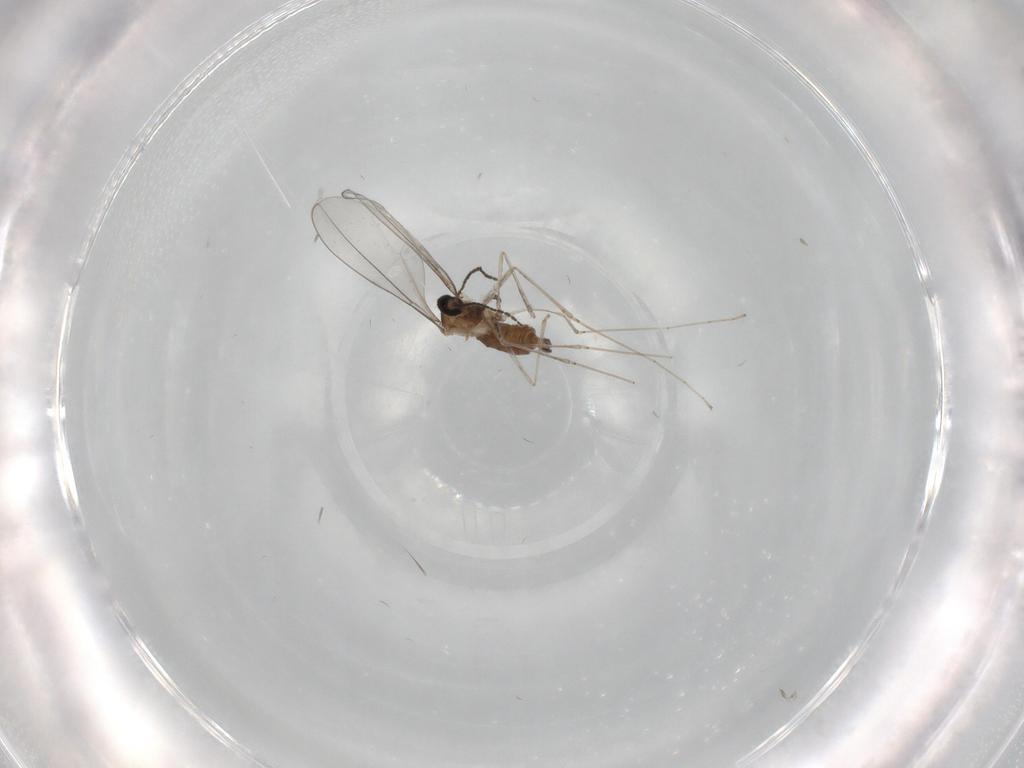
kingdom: Animalia
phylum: Arthropoda
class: Insecta
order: Diptera
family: Cecidomyiidae
